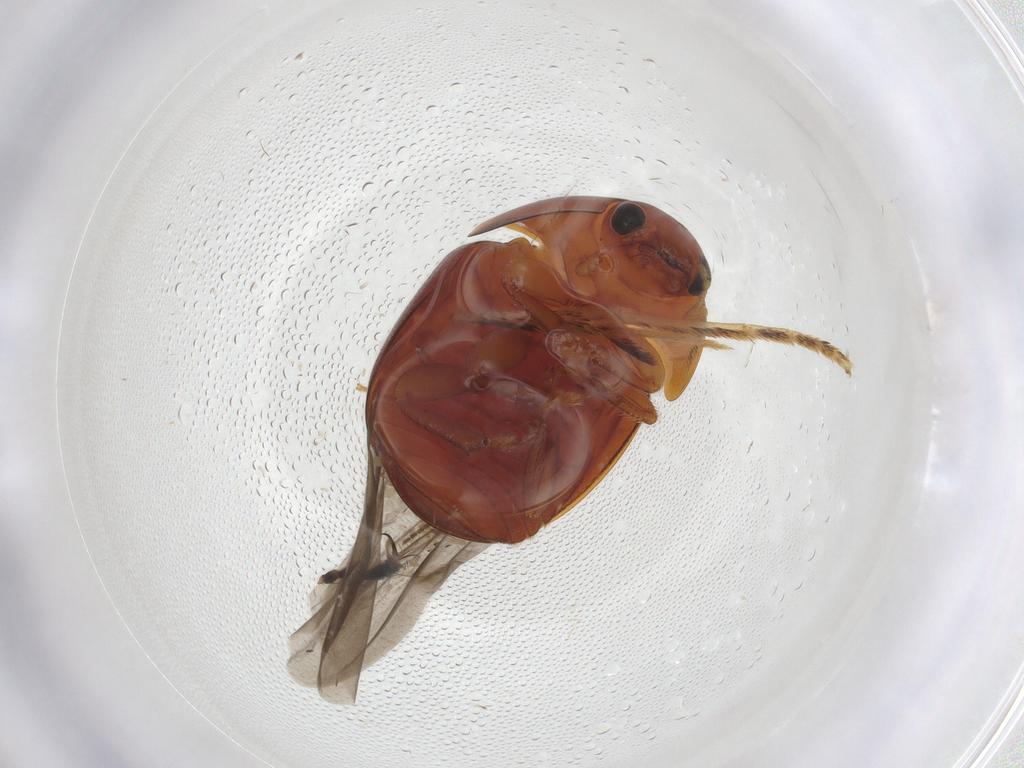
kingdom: Animalia
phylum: Arthropoda
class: Insecta
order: Coleoptera
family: Nitidulidae
